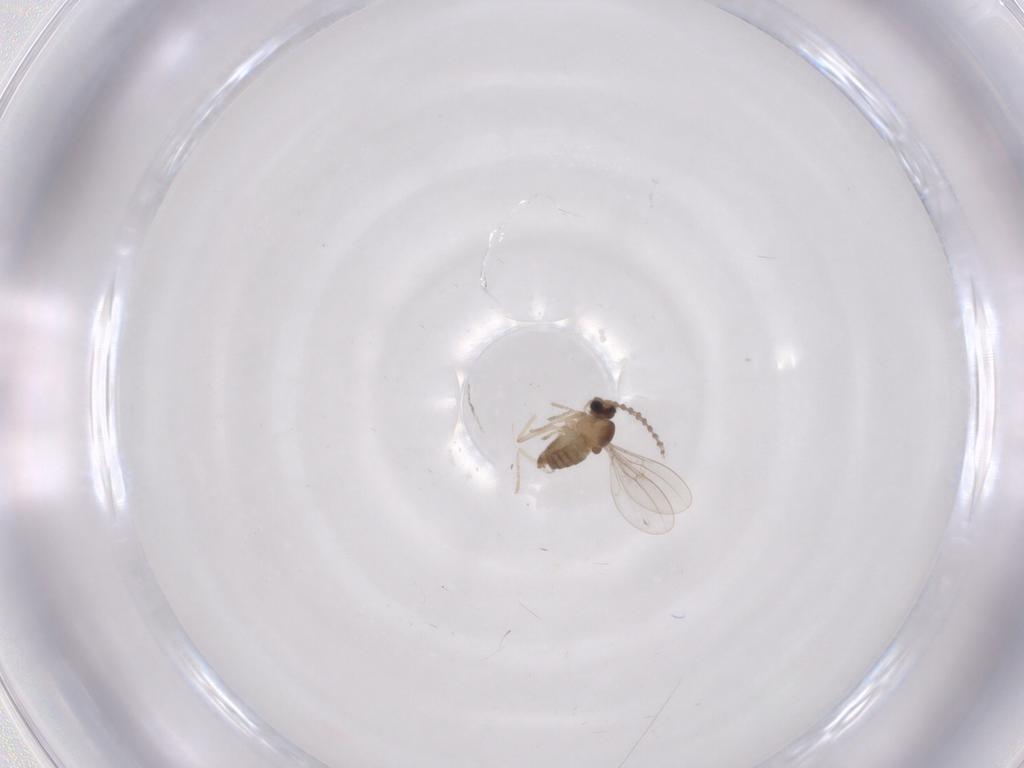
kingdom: Animalia
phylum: Arthropoda
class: Insecta
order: Diptera
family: Cecidomyiidae
